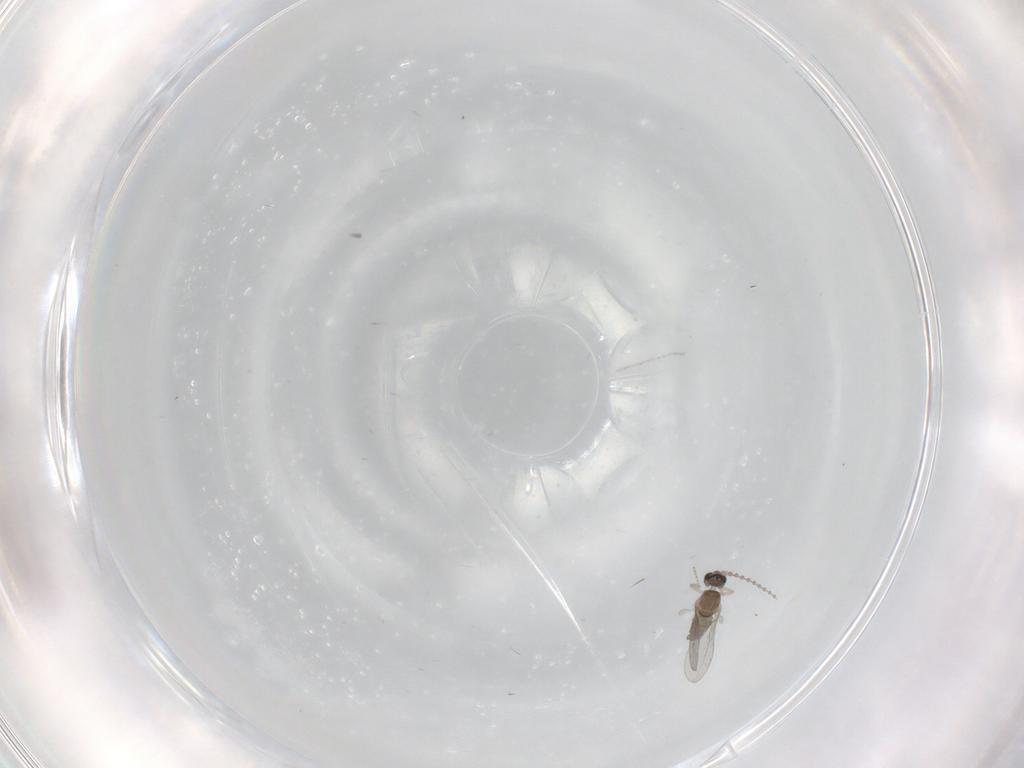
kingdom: Animalia
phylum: Arthropoda
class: Insecta
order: Diptera
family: Cecidomyiidae
